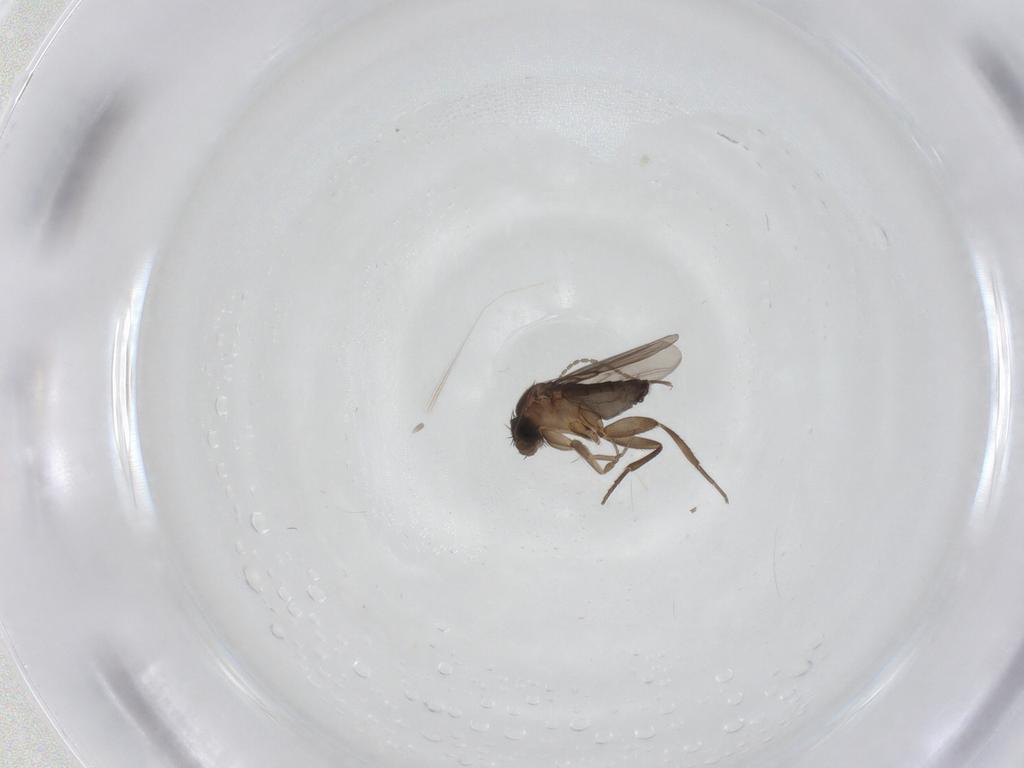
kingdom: Animalia
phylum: Arthropoda
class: Insecta
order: Diptera
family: Phoridae
